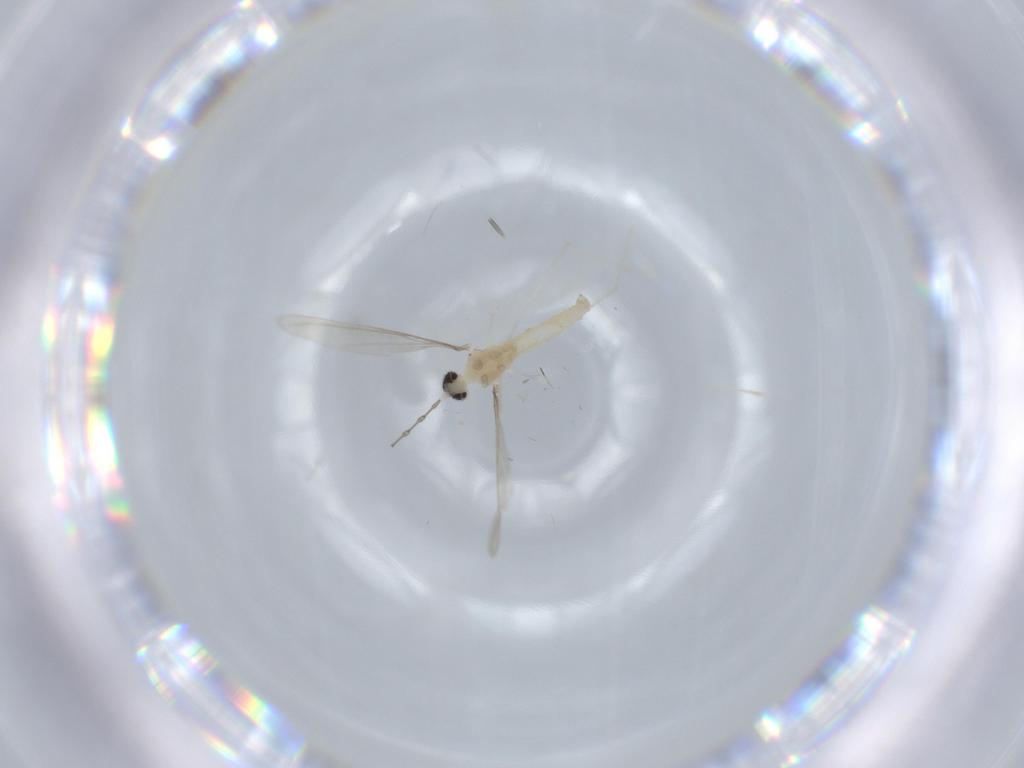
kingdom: Animalia
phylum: Arthropoda
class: Insecta
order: Diptera
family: Cecidomyiidae
